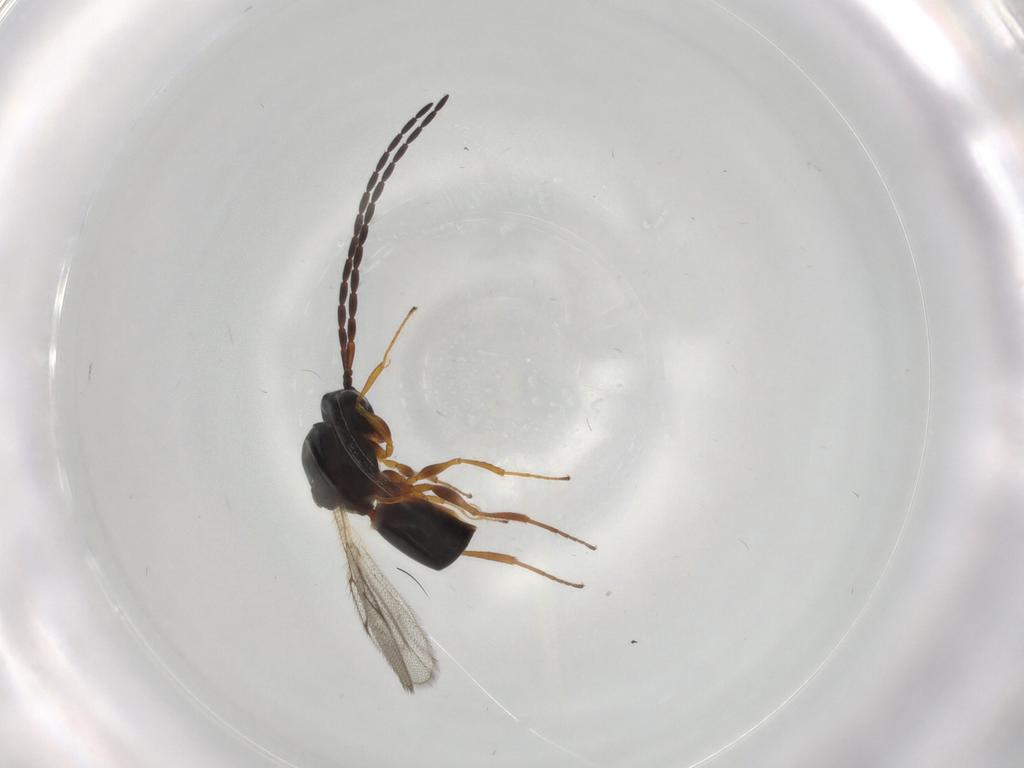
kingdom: Animalia
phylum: Arthropoda
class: Insecta
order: Hymenoptera
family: Figitidae
